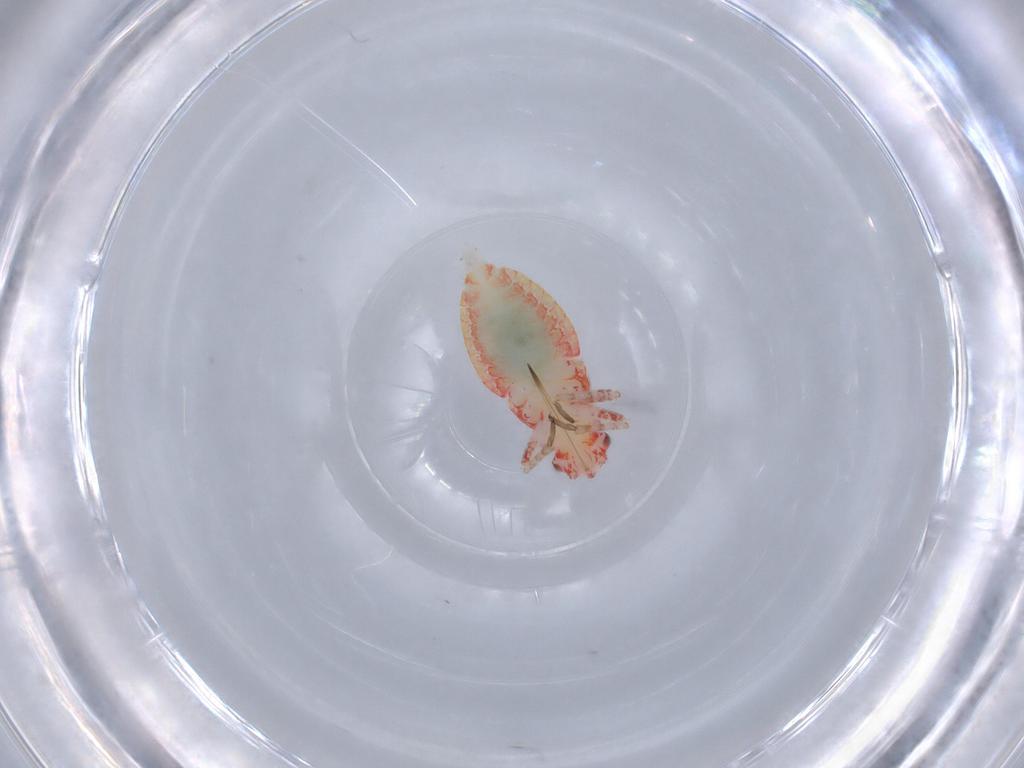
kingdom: Animalia
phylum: Arthropoda
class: Insecta
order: Hemiptera
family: Miridae
